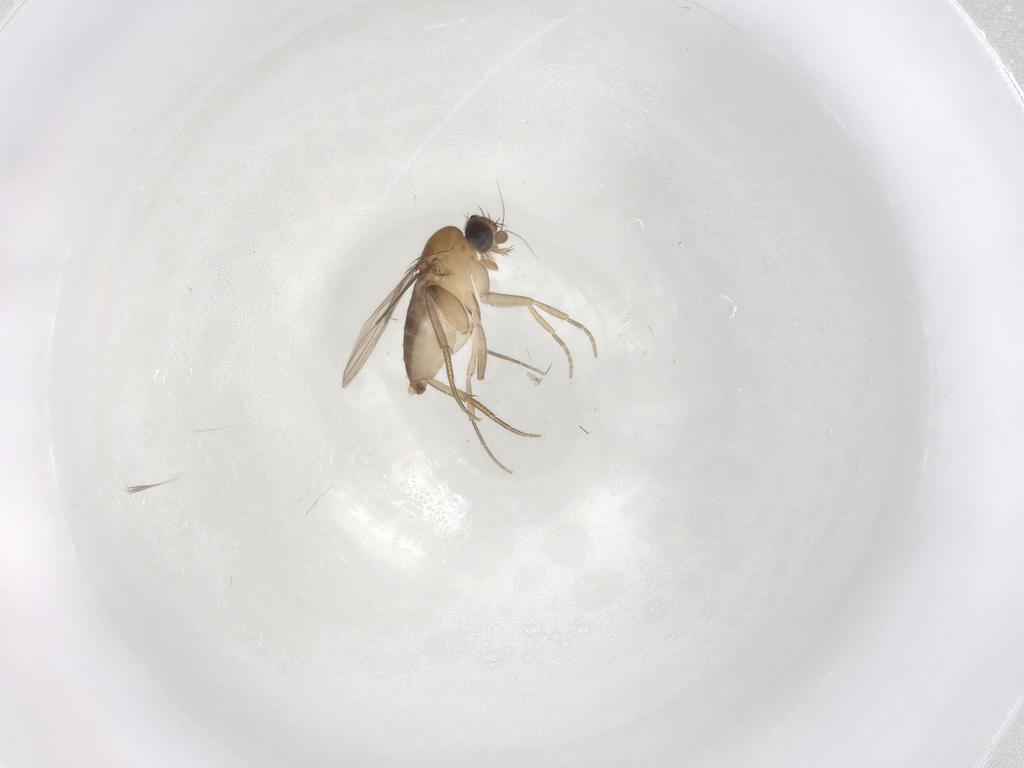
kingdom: Animalia
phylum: Arthropoda
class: Insecta
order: Diptera
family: Phoridae
